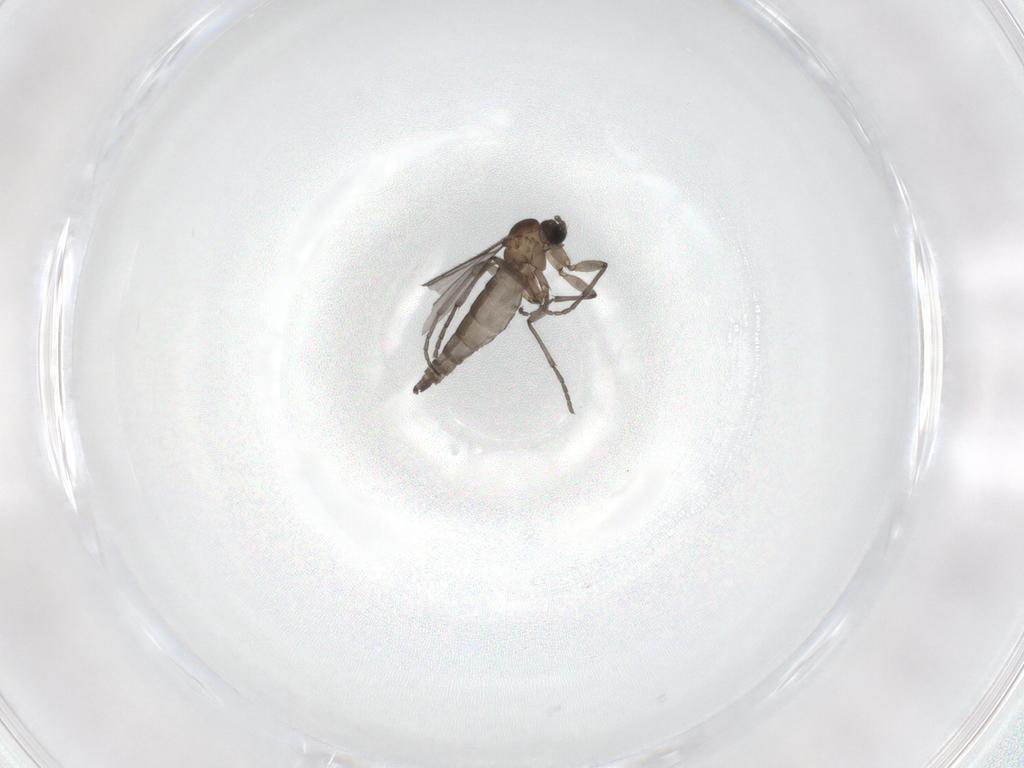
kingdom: Animalia
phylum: Arthropoda
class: Insecta
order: Diptera
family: Sciaridae
